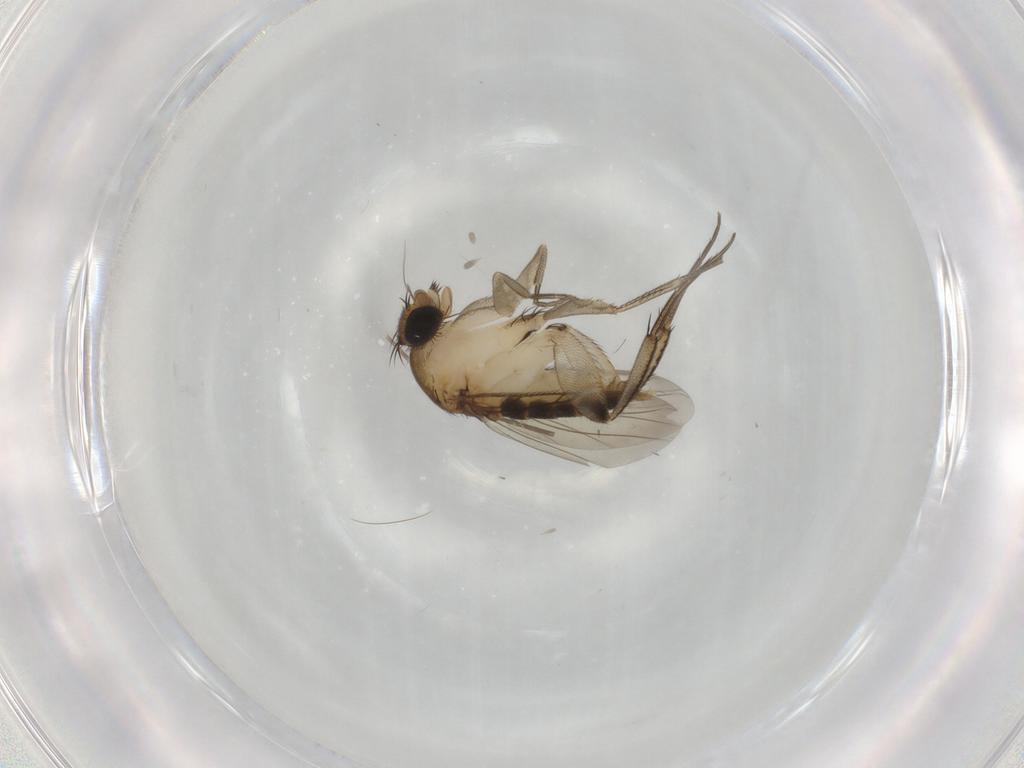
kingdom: Animalia
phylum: Arthropoda
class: Insecta
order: Diptera
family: Phoridae
